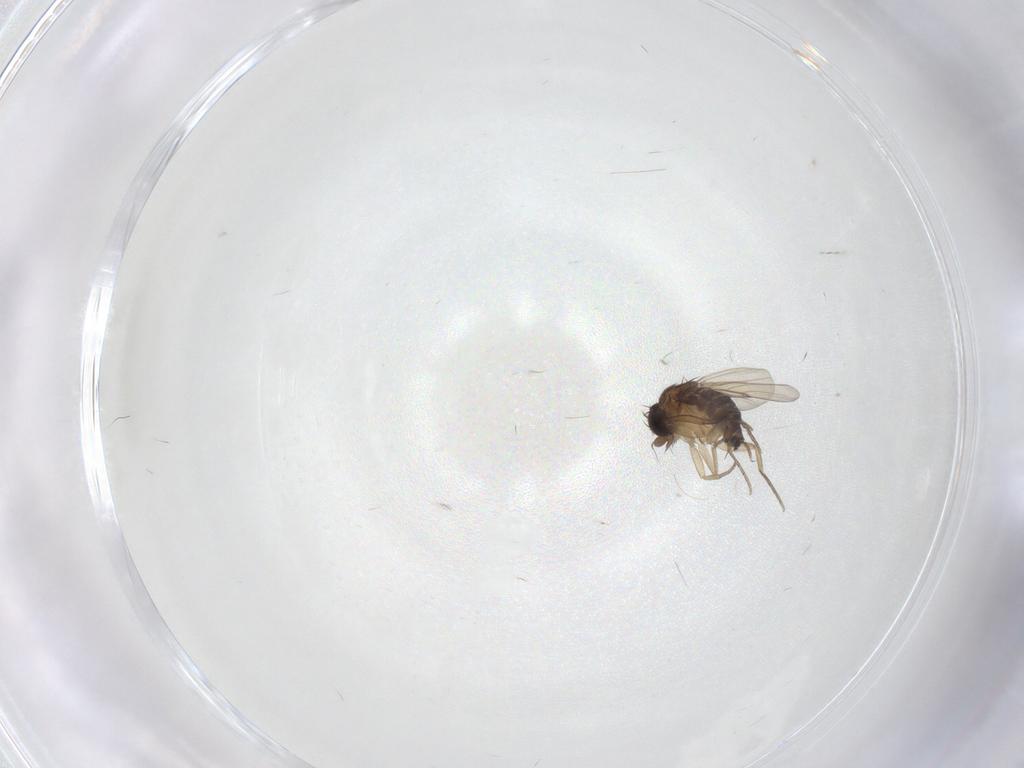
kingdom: Animalia
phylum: Arthropoda
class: Insecta
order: Diptera
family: Phoridae
